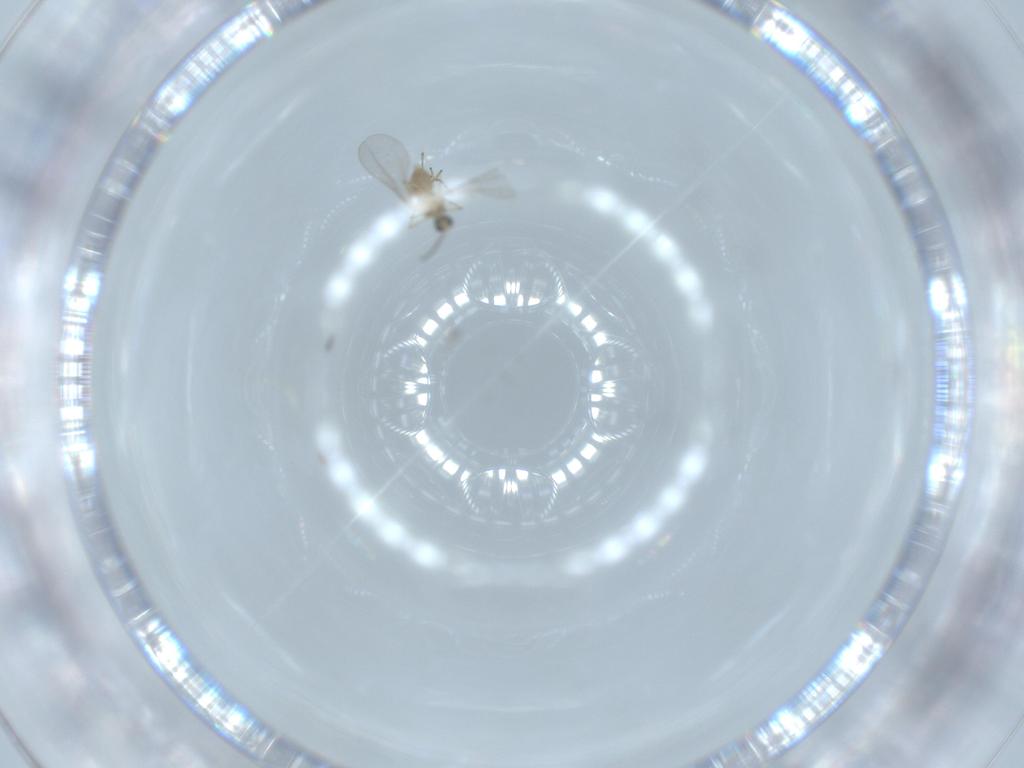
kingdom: Animalia
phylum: Arthropoda
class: Insecta
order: Diptera
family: Cecidomyiidae
